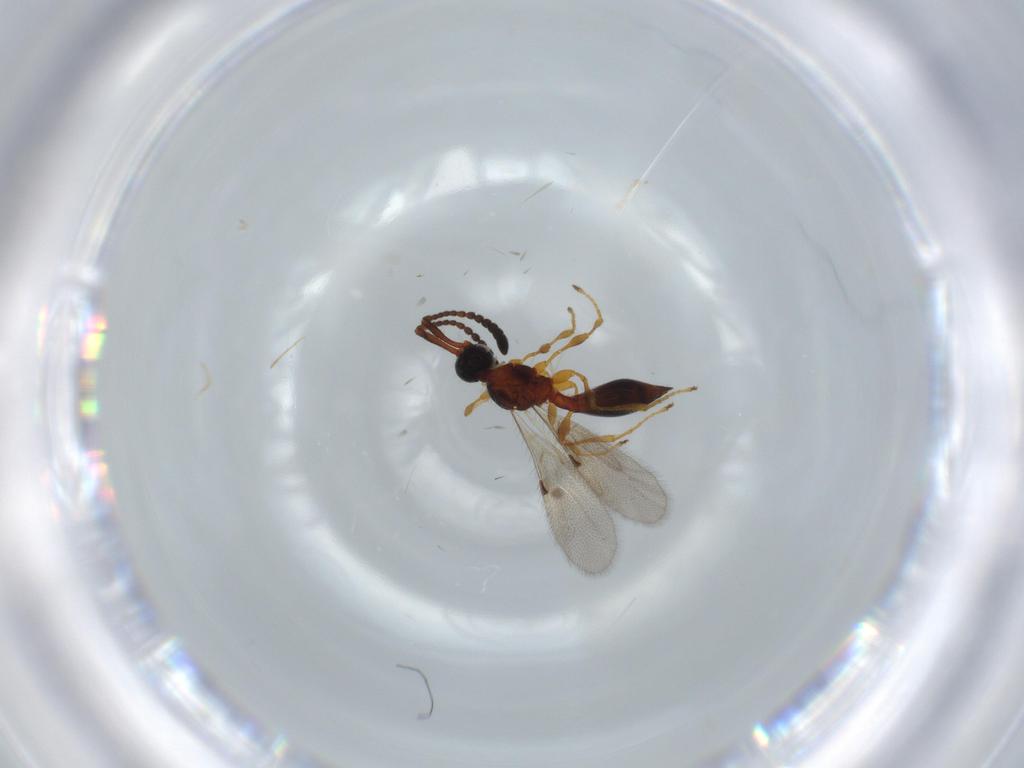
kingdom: Animalia
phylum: Arthropoda
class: Insecta
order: Hymenoptera
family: Diapriidae
